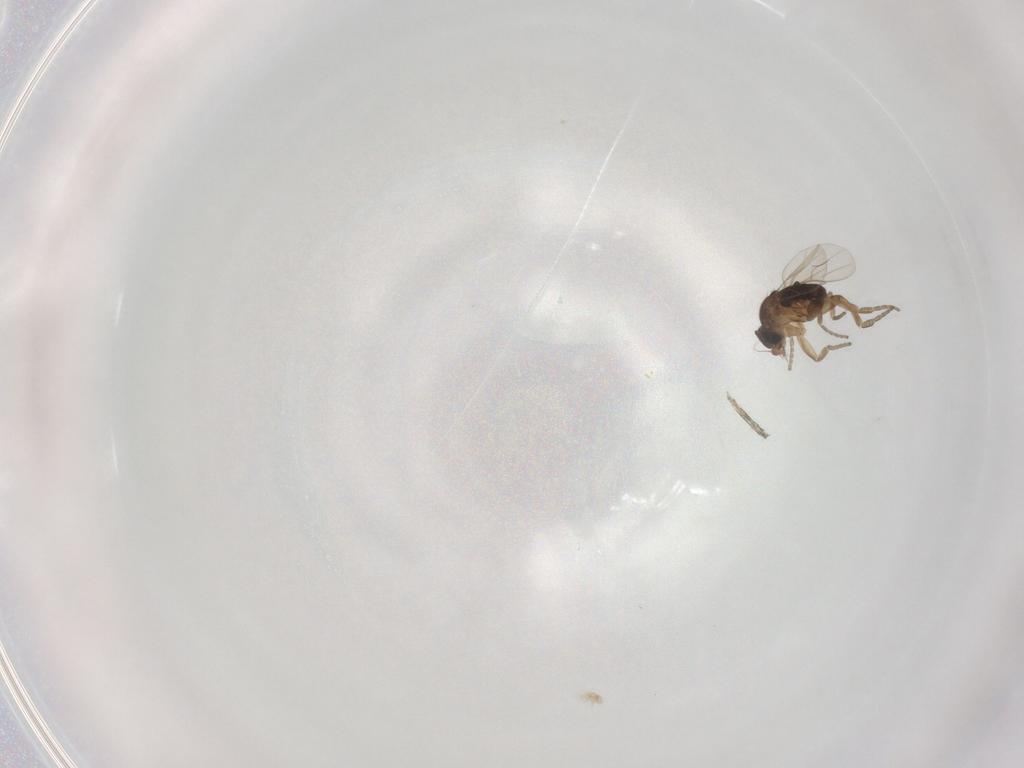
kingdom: Animalia
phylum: Arthropoda
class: Insecta
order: Diptera
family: Phoridae
